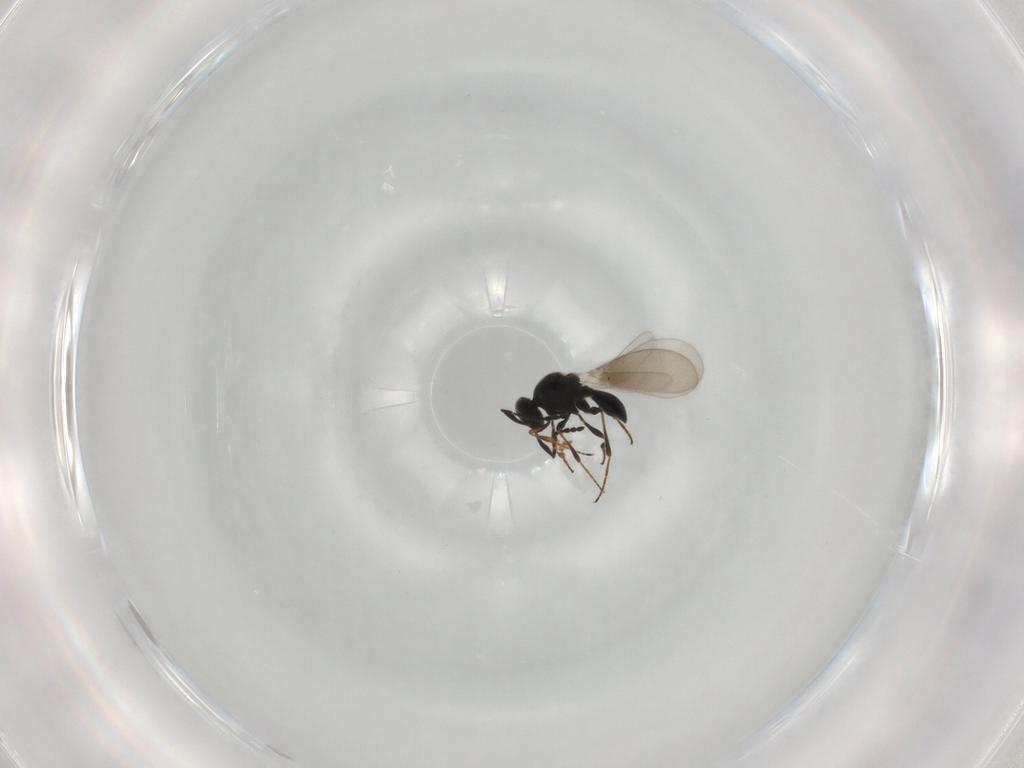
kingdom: Animalia
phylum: Arthropoda
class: Insecta
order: Hymenoptera
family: Platygastridae
